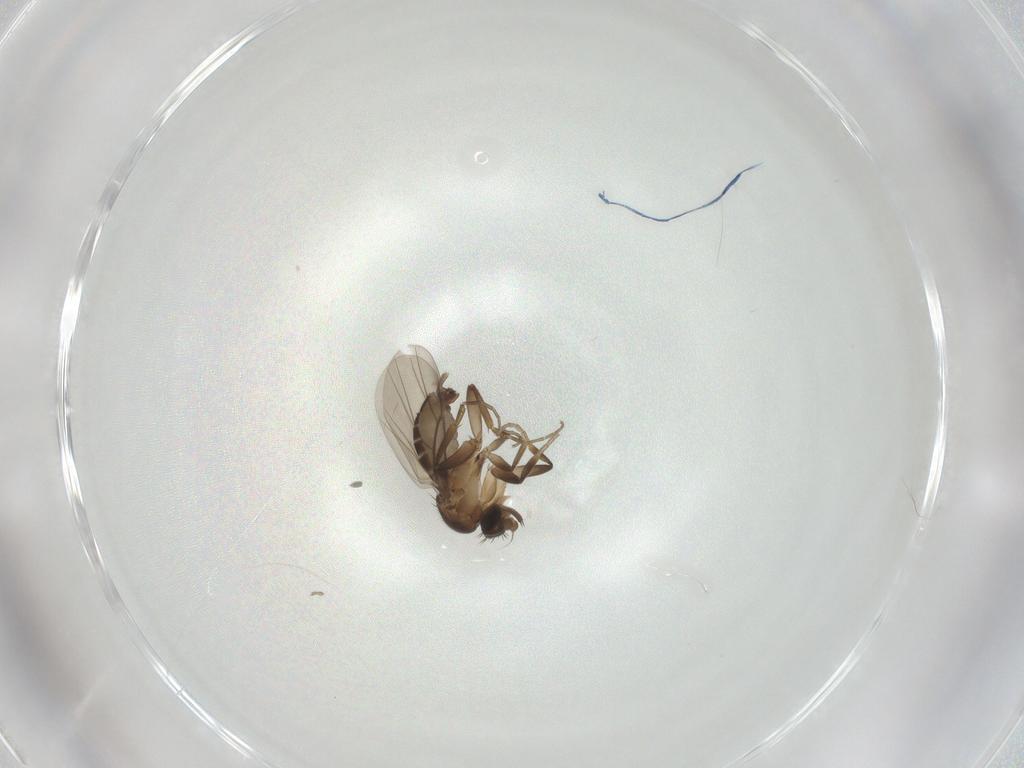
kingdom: Animalia
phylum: Arthropoda
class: Insecta
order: Diptera
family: Phoridae
